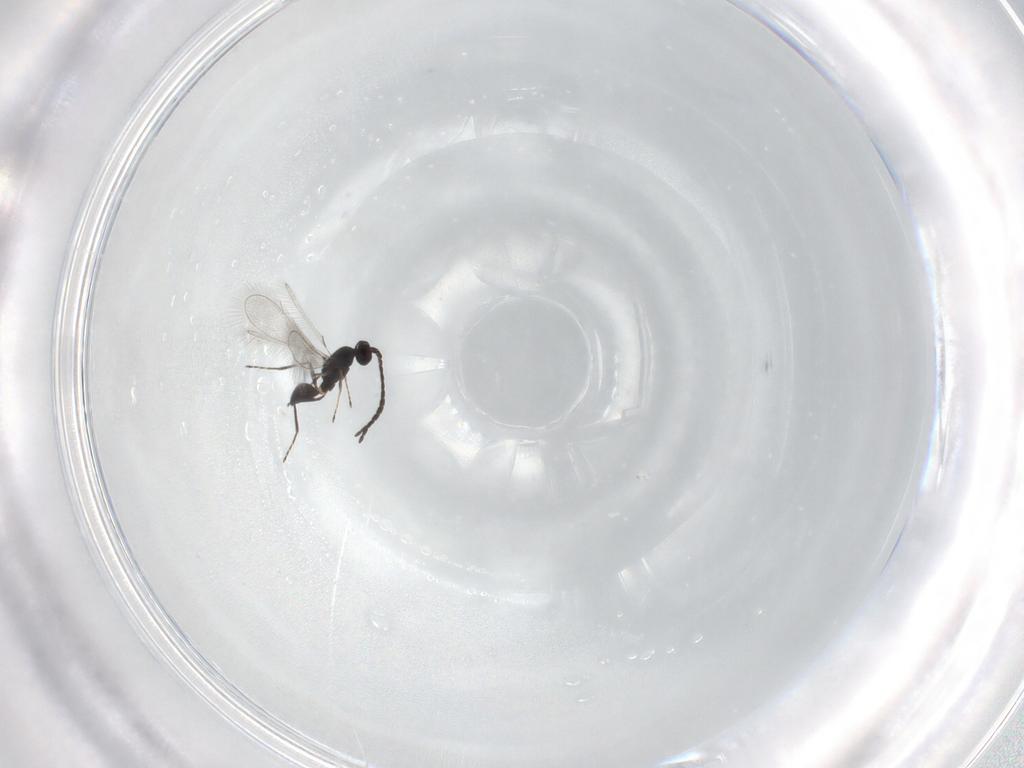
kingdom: Animalia
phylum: Arthropoda
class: Insecta
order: Hymenoptera
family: Mymaridae
